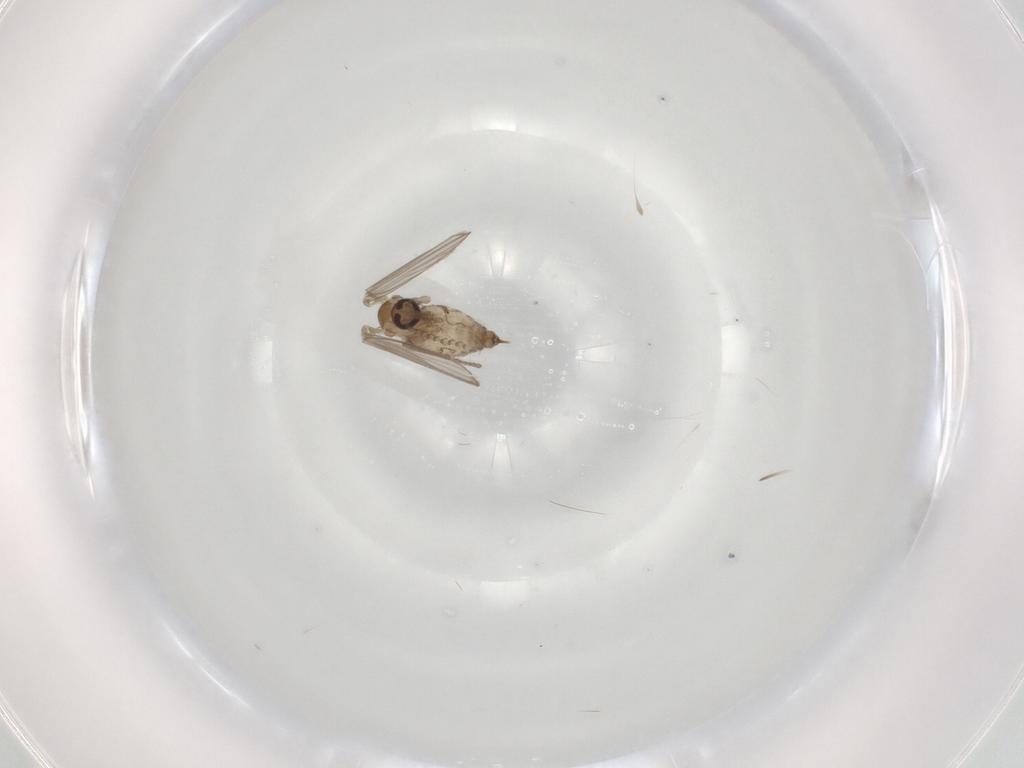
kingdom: Animalia
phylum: Arthropoda
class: Insecta
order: Diptera
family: Psychodidae
